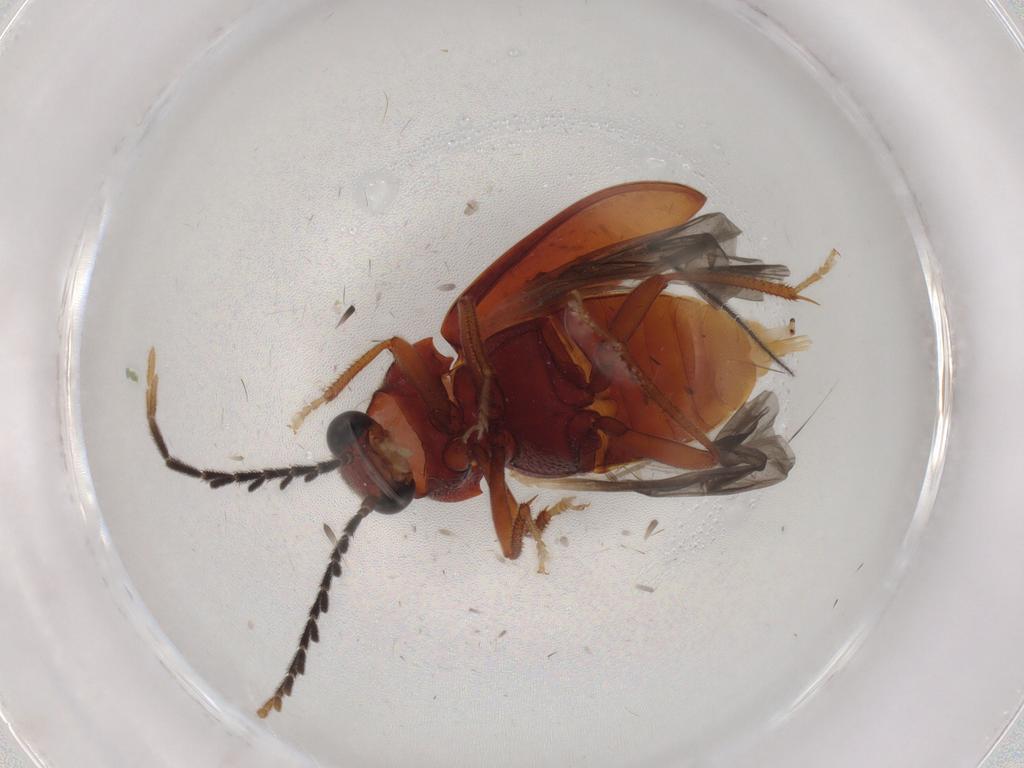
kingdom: Animalia
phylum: Arthropoda
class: Insecta
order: Coleoptera
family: Ptilodactylidae
